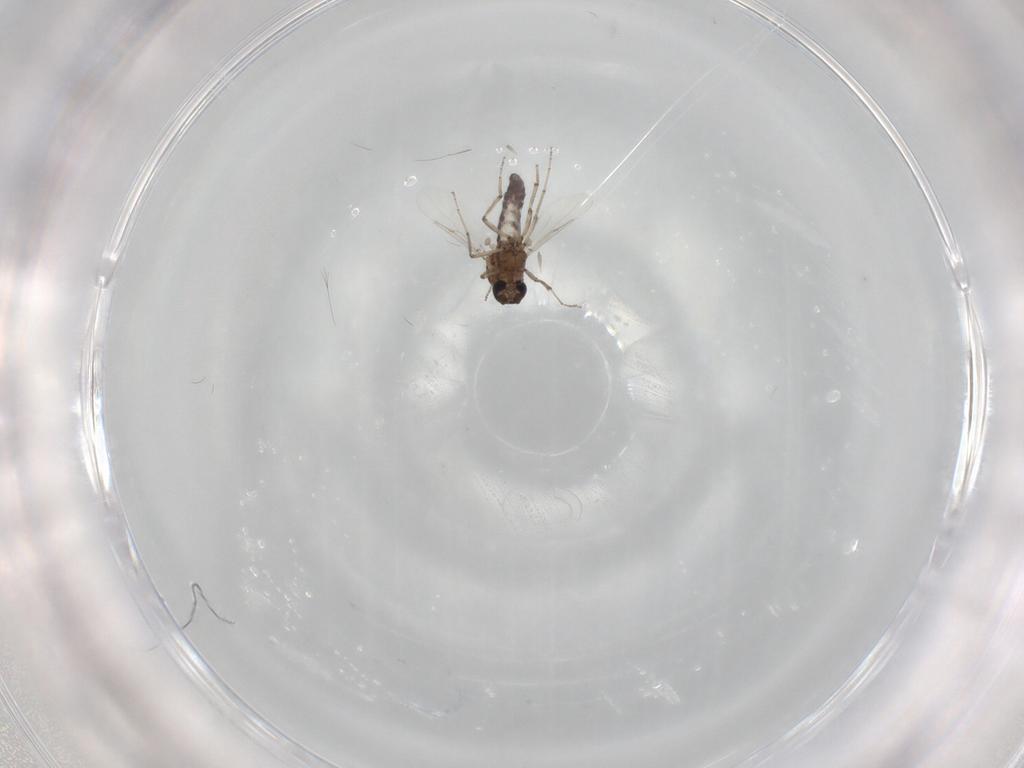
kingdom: Animalia
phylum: Arthropoda
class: Insecta
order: Diptera
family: Ceratopogonidae
